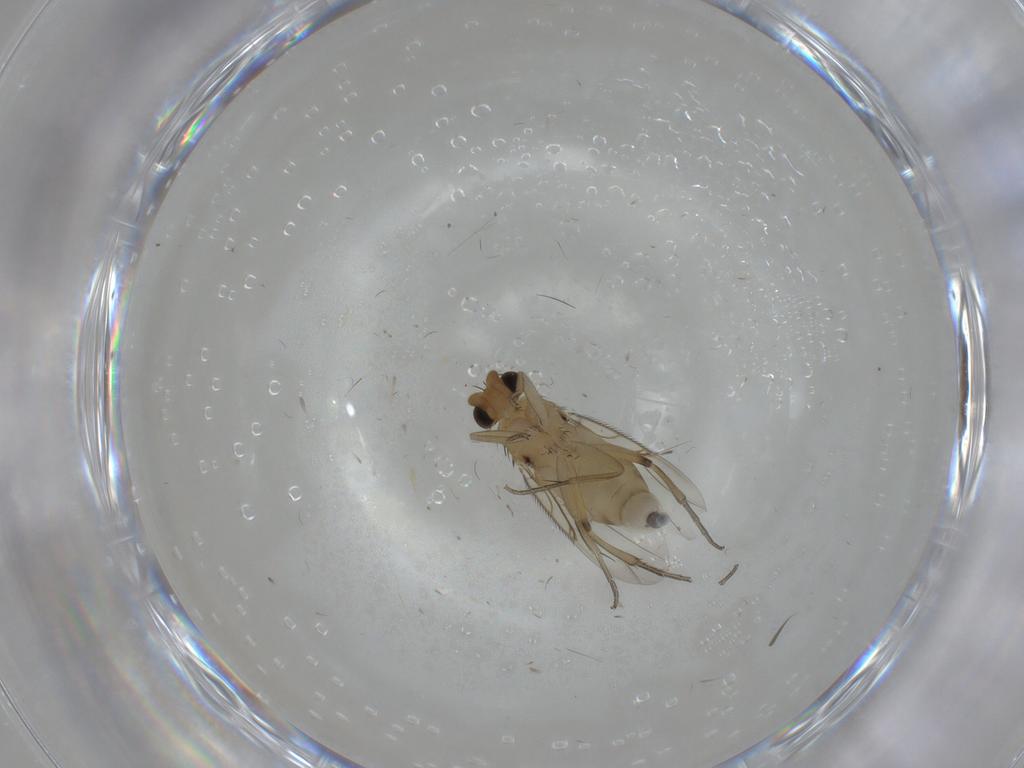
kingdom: Animalia
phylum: Arthropoda
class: Insecta
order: Diptera
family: Phoridae
